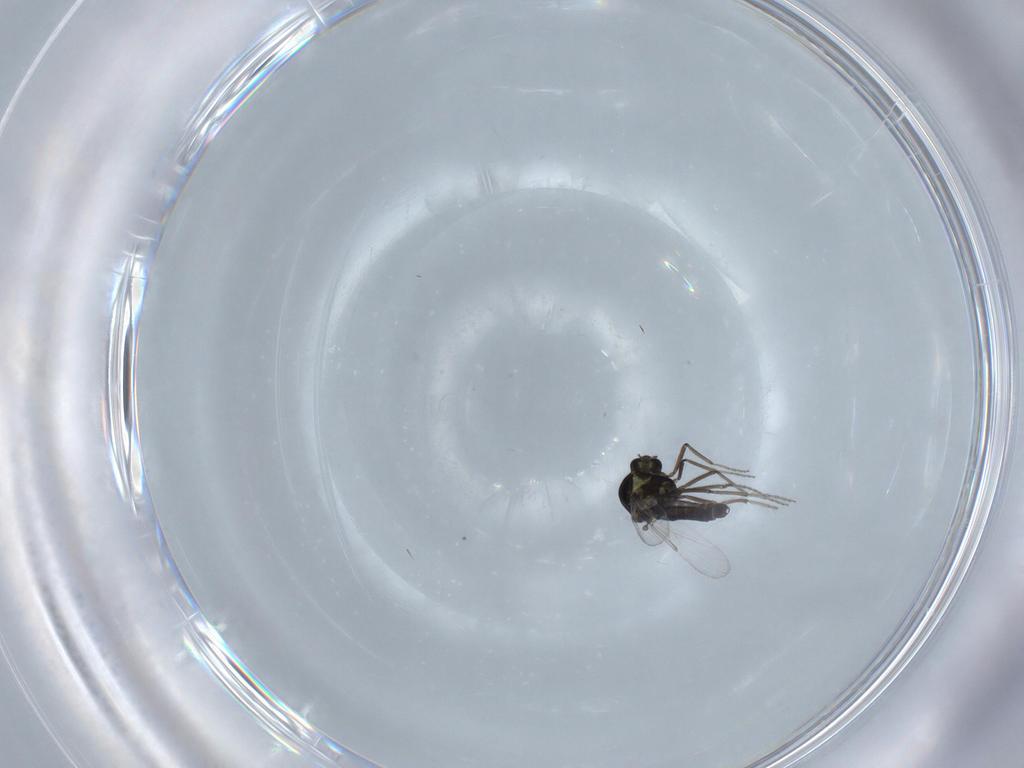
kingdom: Animalia
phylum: Arthropoda
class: Insecta
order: Diptera
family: Ceratopogonidae
